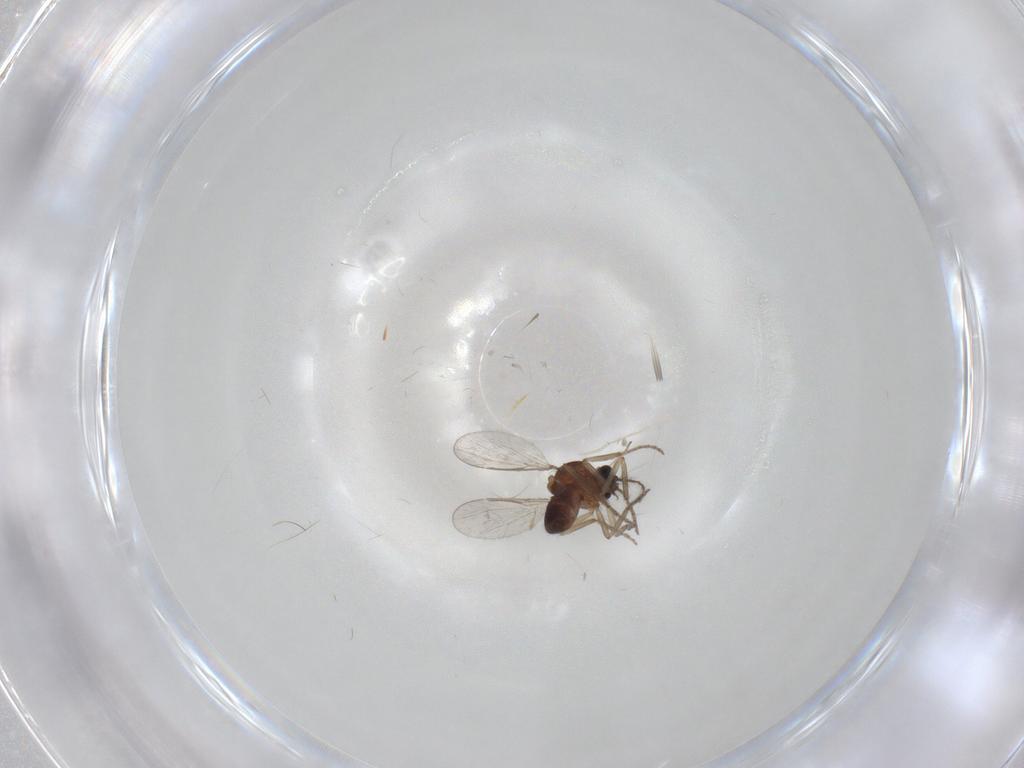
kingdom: Animalia
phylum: Arthropoda
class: Insecta
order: Diptera
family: Ceratopogonidae
